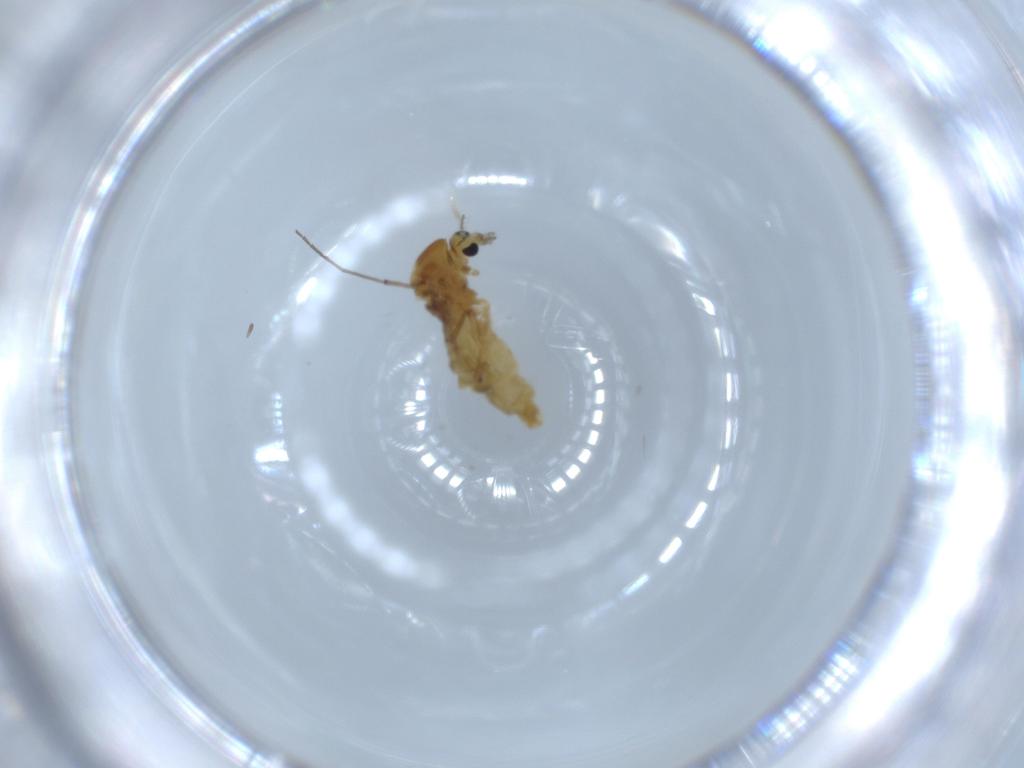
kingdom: Animalia
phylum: Arthropoda
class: Insecta
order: Diptera
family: Chironomidae
